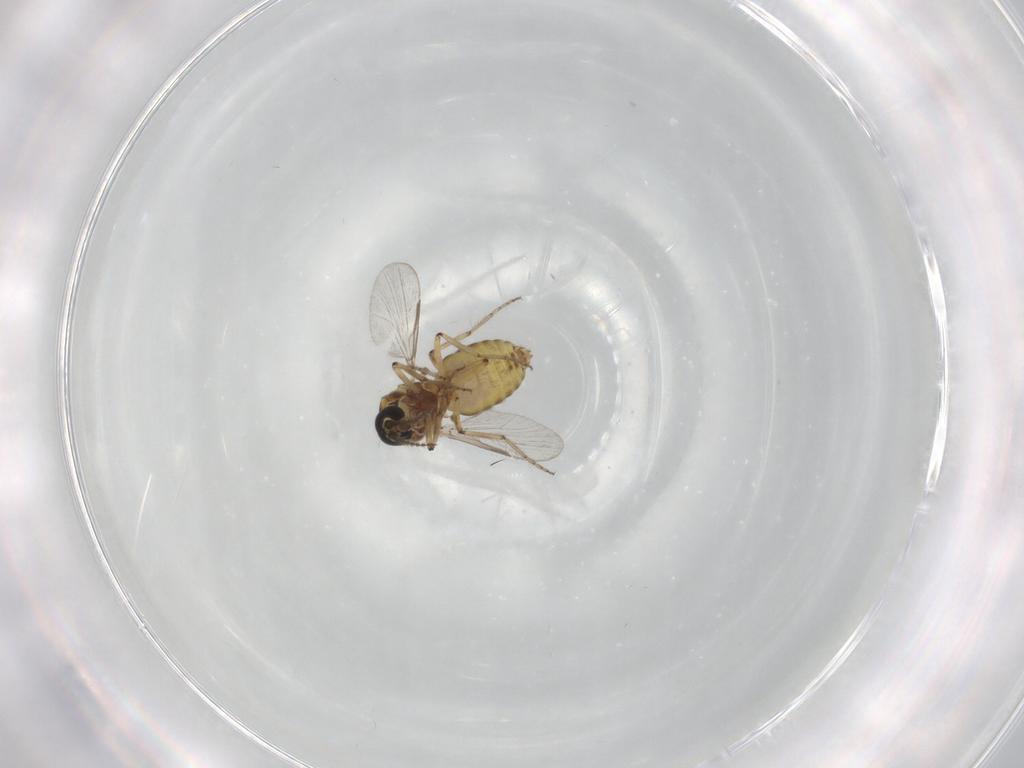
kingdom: Animalia
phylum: Arthropoda
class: Insecta
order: Diptera
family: Ceratopogonidae
